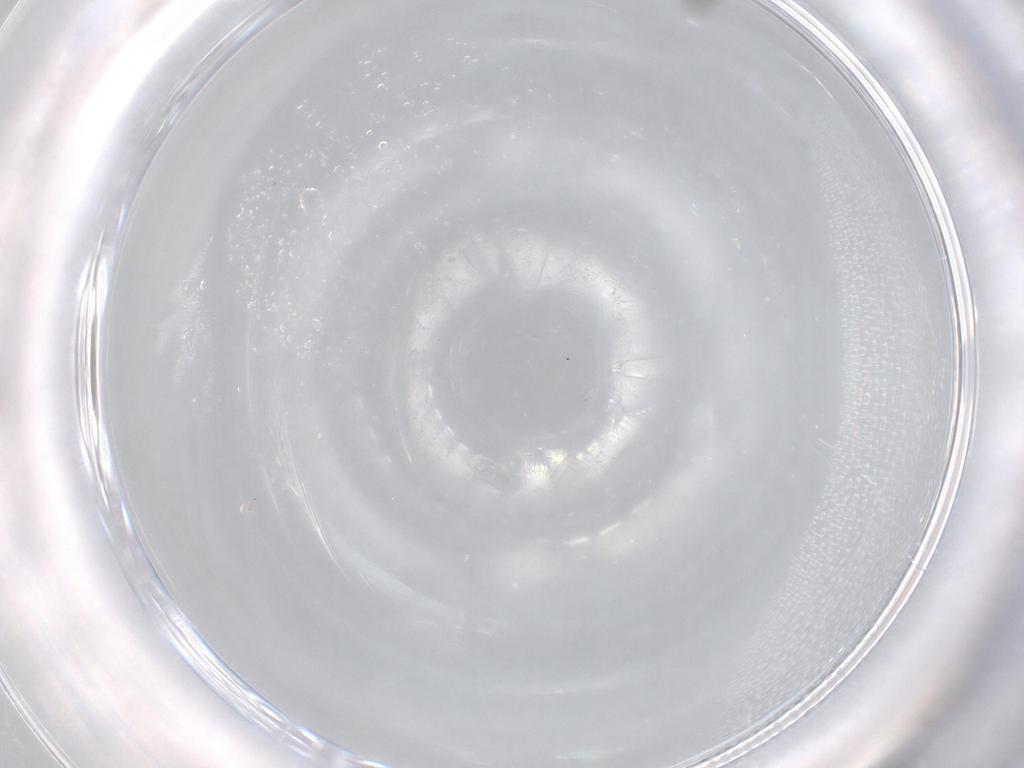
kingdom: Animalia
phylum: Arthropoda
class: Insecta
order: Diptera
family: Chironomidae
